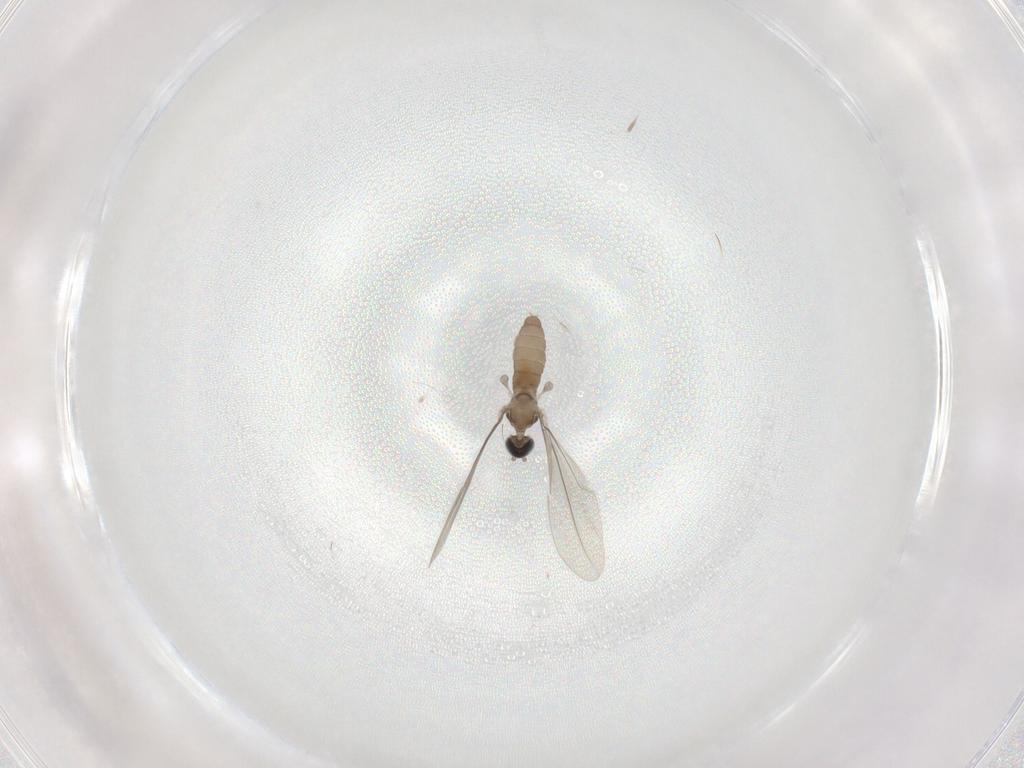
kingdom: Animalia
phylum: Arthropoda
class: Insecta
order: Diptera
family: Cecidomyiidae
